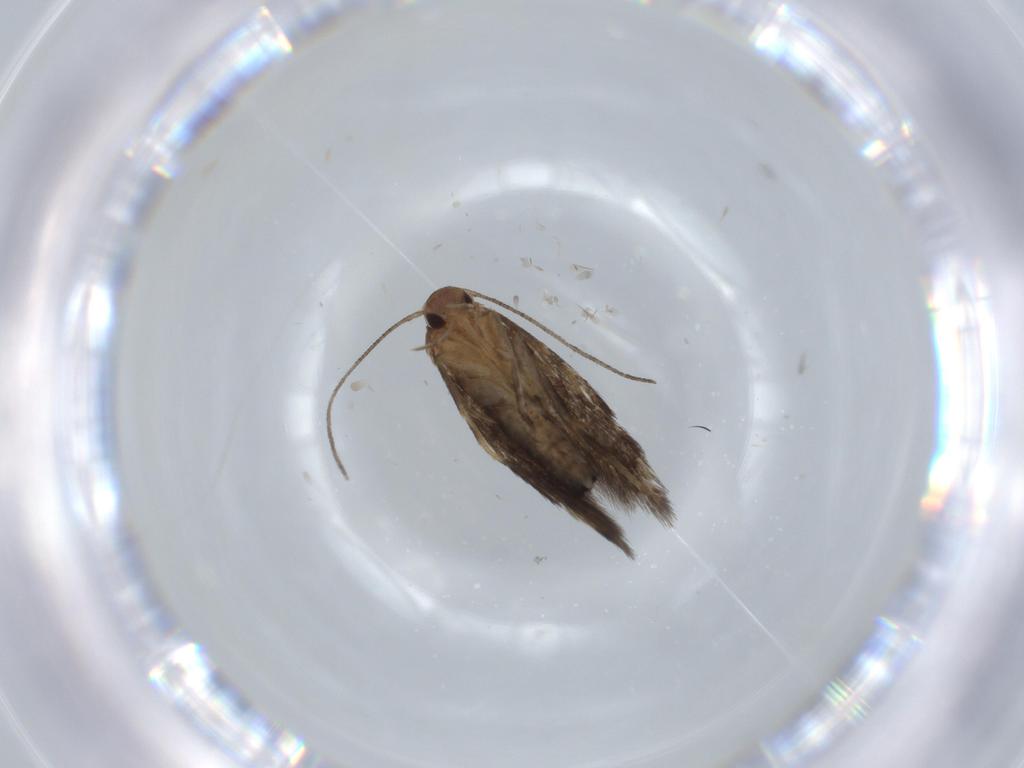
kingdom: Animalia
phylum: Arthropoda
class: Insecta
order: Lepidoptera
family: Cosmopterigidae
